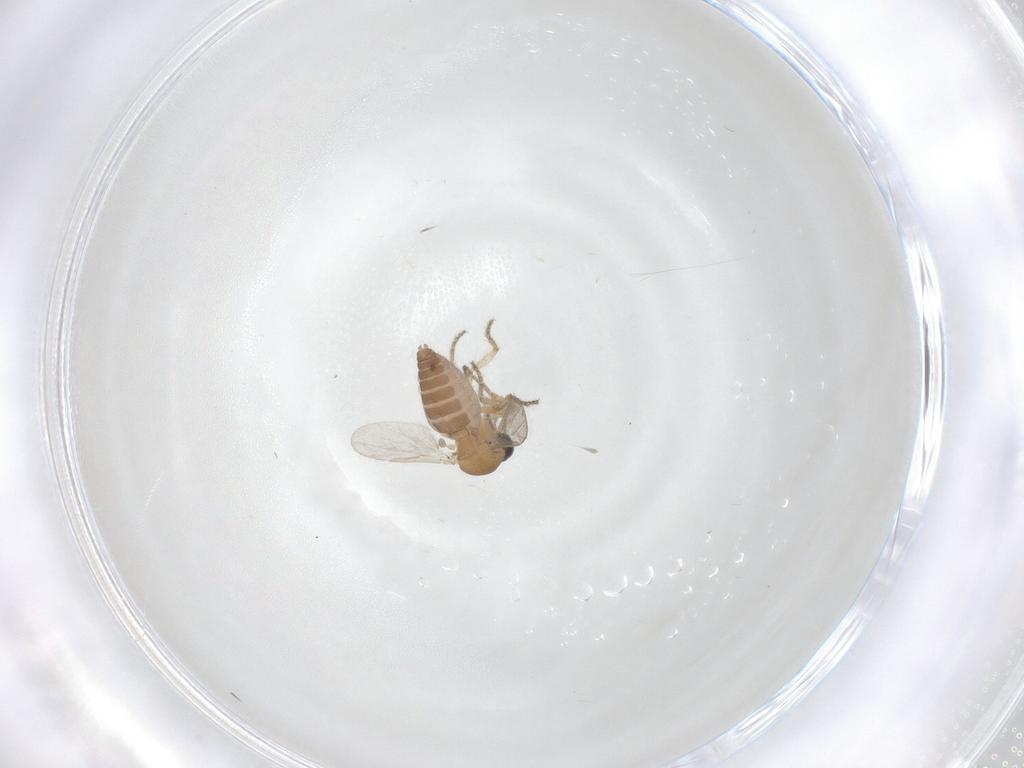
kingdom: Animalia
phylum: Arthropoda
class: Insecta
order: Diptera
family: Ceratopogonidae
